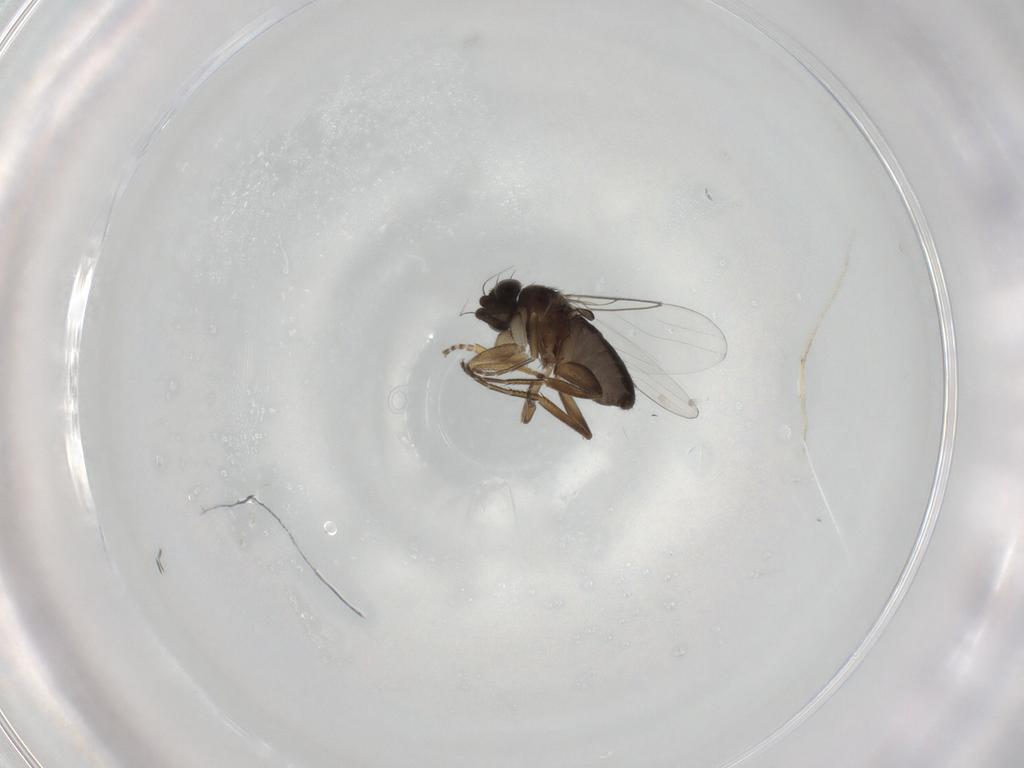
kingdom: Animalia
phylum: Arthropoda
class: Insecta
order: Diptera
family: Phoridae
